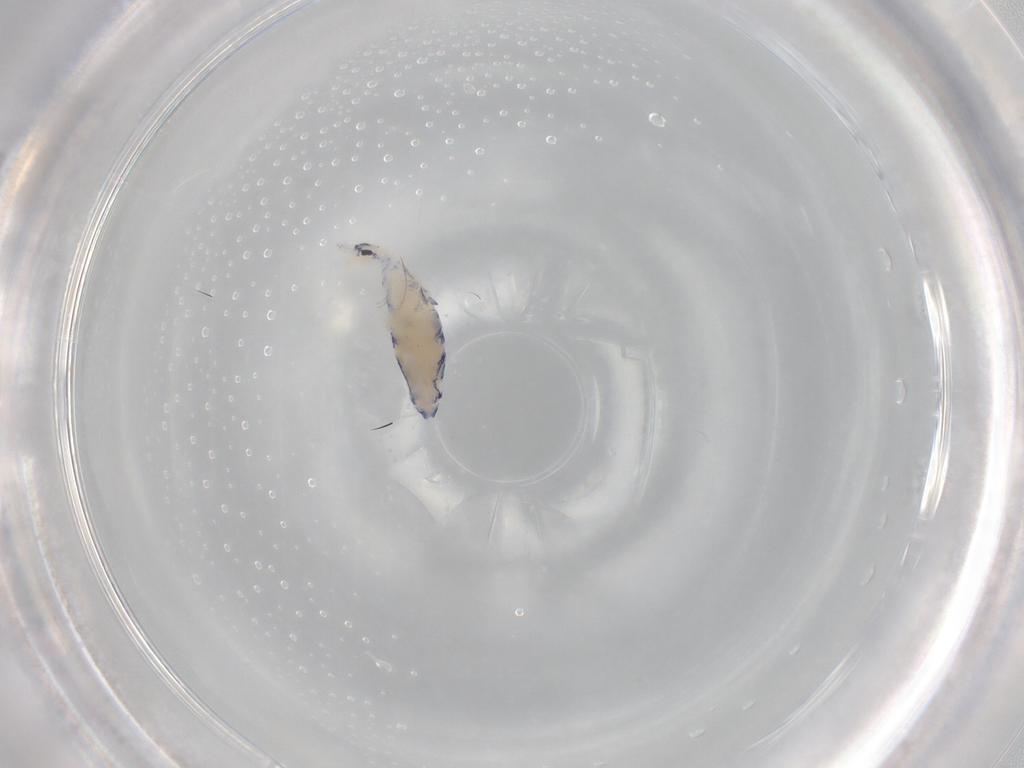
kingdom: Animalia
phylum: Arthropoda
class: Collembola
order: Entomobryomorpha
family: Entomobryidae
